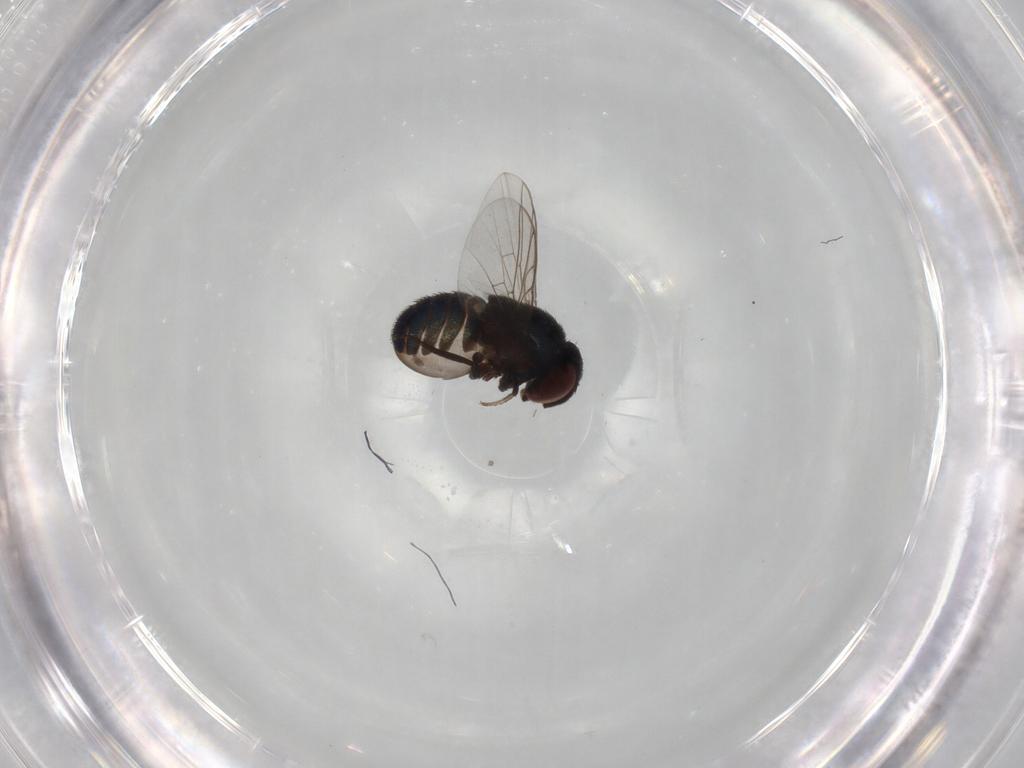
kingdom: Animalia
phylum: Arthropoda
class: Insecta
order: Diptera
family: Cryptochetidae
